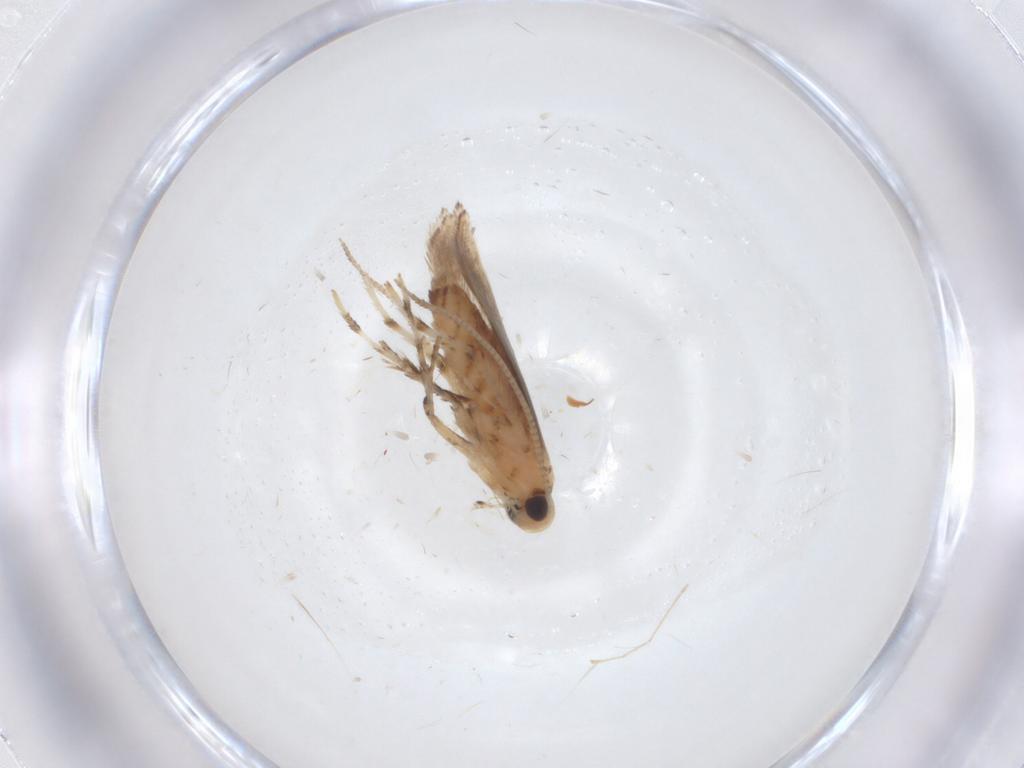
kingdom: Animalia
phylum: Arthropoda
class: Insecta
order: Lepidoptera
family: Gracillariidae
